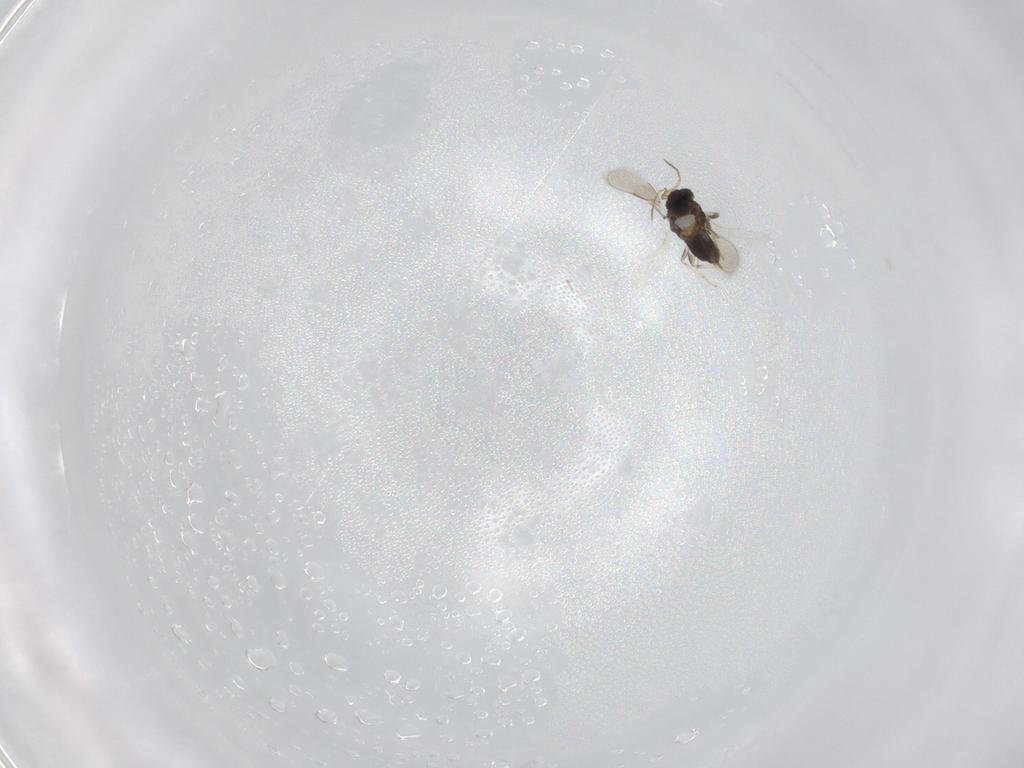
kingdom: Animalia
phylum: Arthropoda
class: Insecta
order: Hymenoptera
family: Aphelinidae
